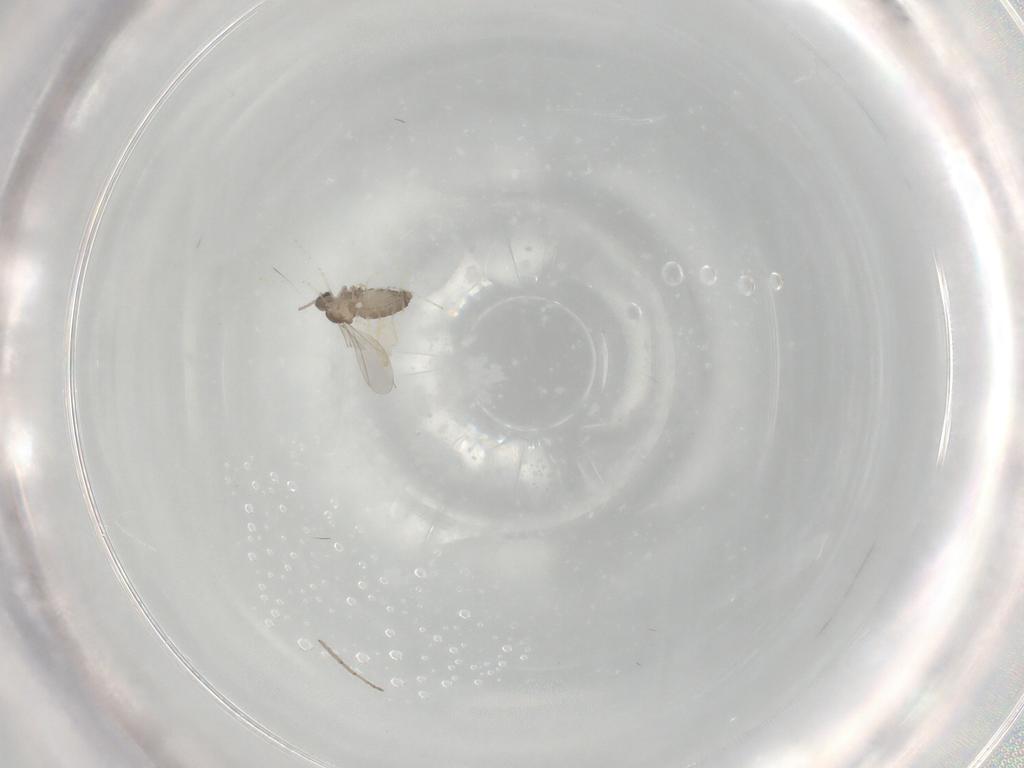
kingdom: Animalia
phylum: Arthropoda
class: Insecta
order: Diptera
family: Chironomidae
